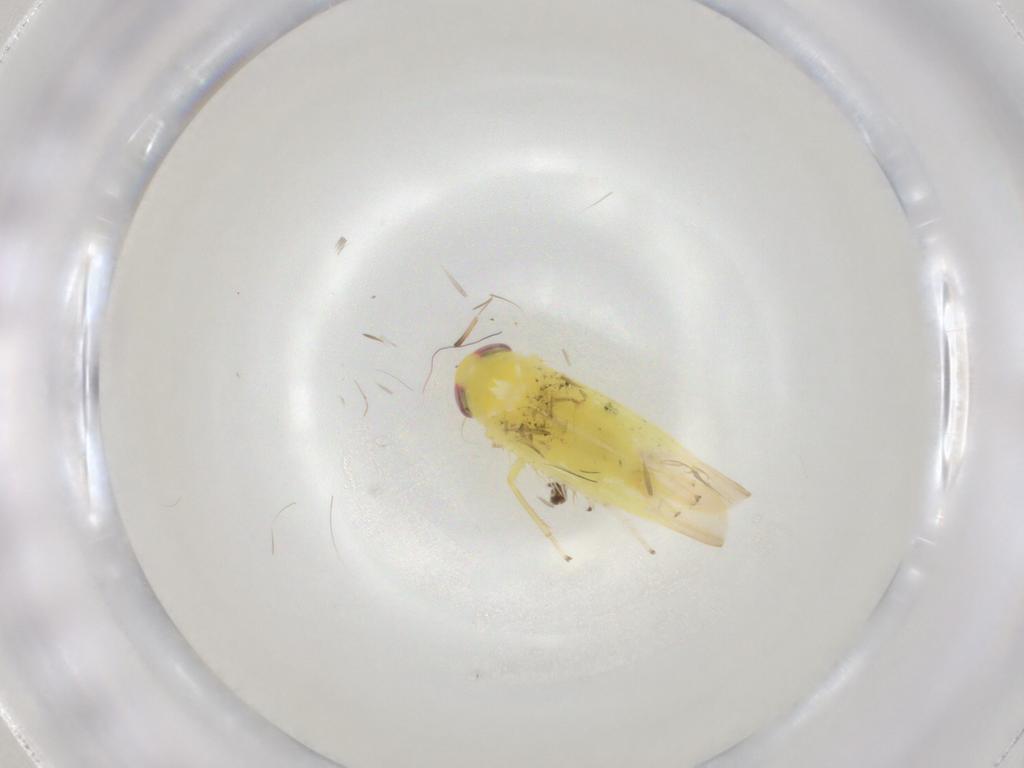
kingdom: Animalia
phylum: Arthropoda
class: Insecta
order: Hemiptera
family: Cicadellidae
